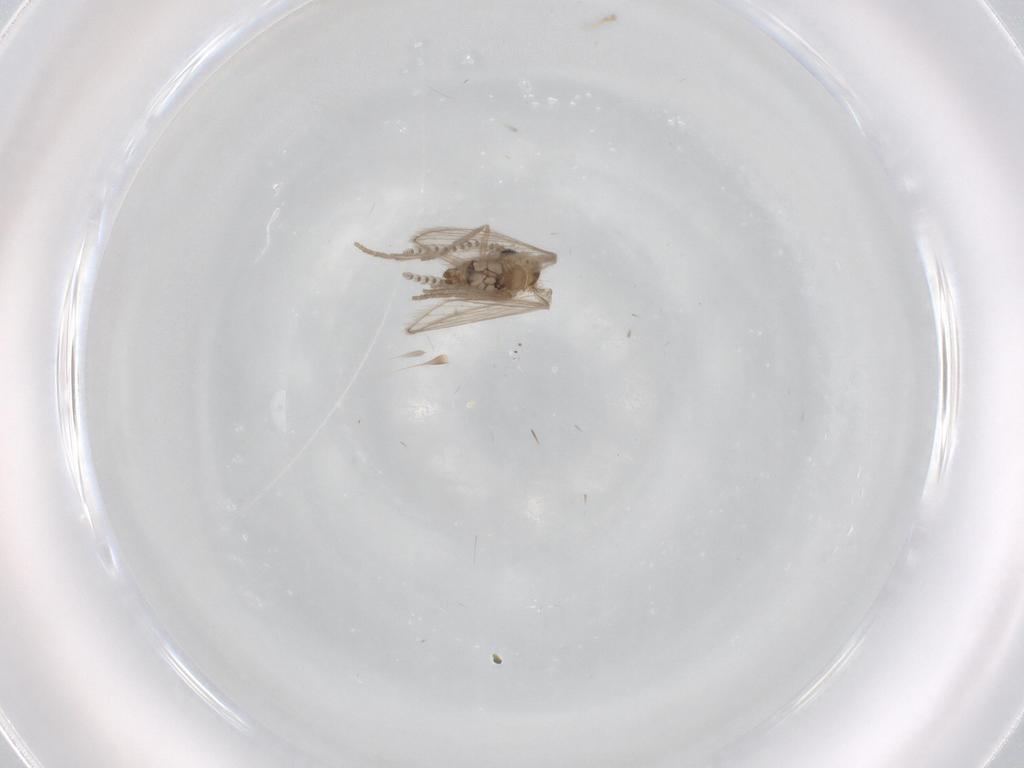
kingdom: Animalia
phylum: Arthropoda
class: Insecta
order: Diptera
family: Psychodidae
